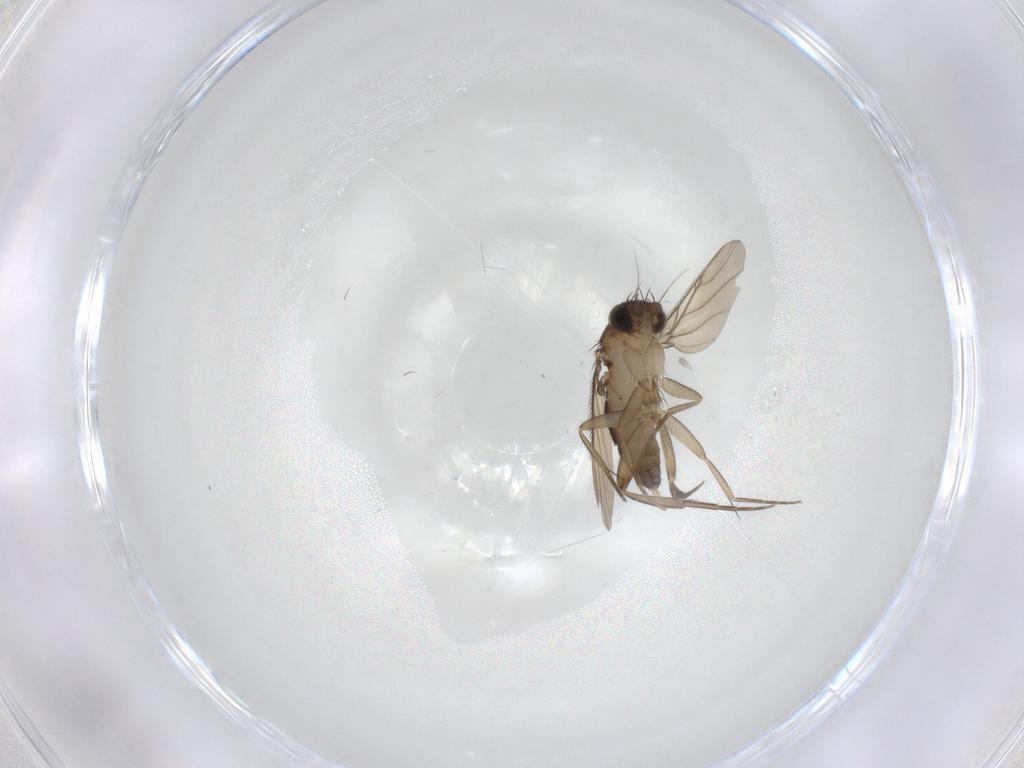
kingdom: Animalia
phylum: Arthropoda
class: Insecta
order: Diptera
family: Phoridae
